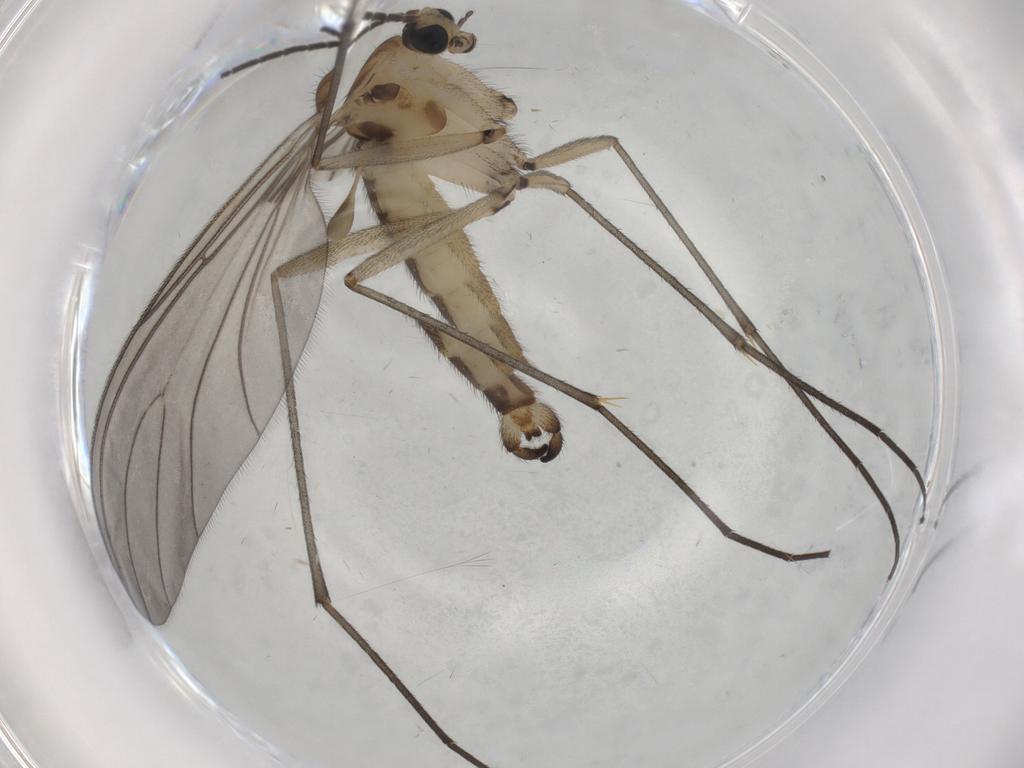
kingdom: Animalia
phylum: Arthropoda
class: Insecta
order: Diptera
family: Sciaridae
